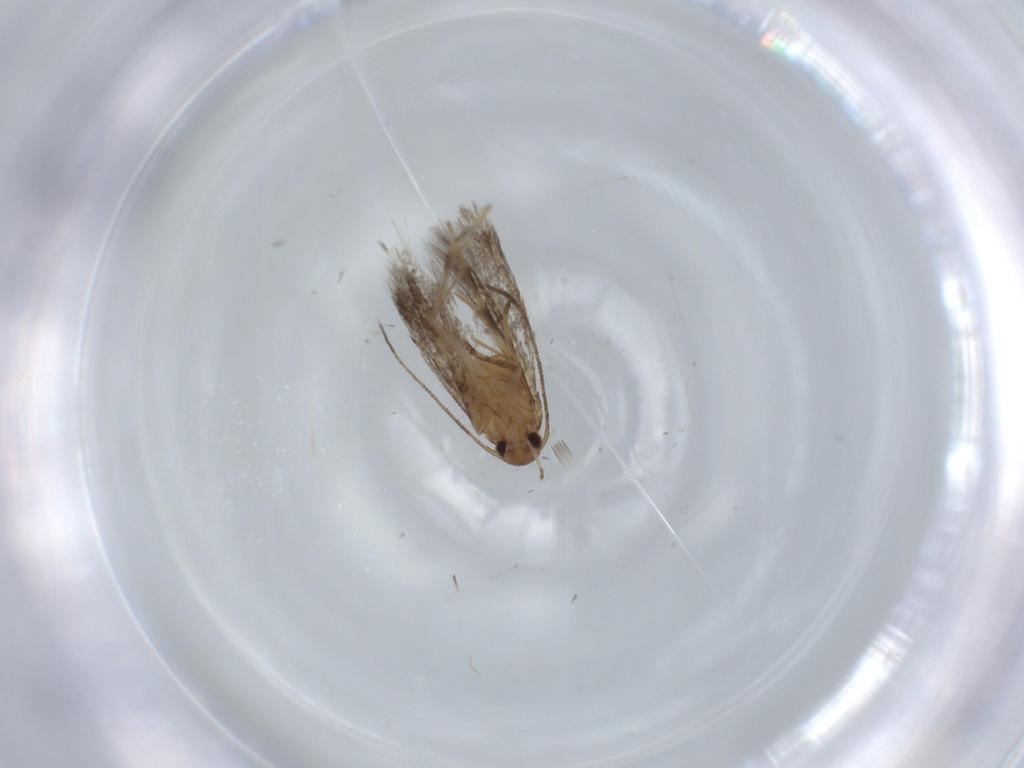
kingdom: Animalia
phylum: Arthropoda
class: Insecta
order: Lepidoptera
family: Cosmopterigidae
